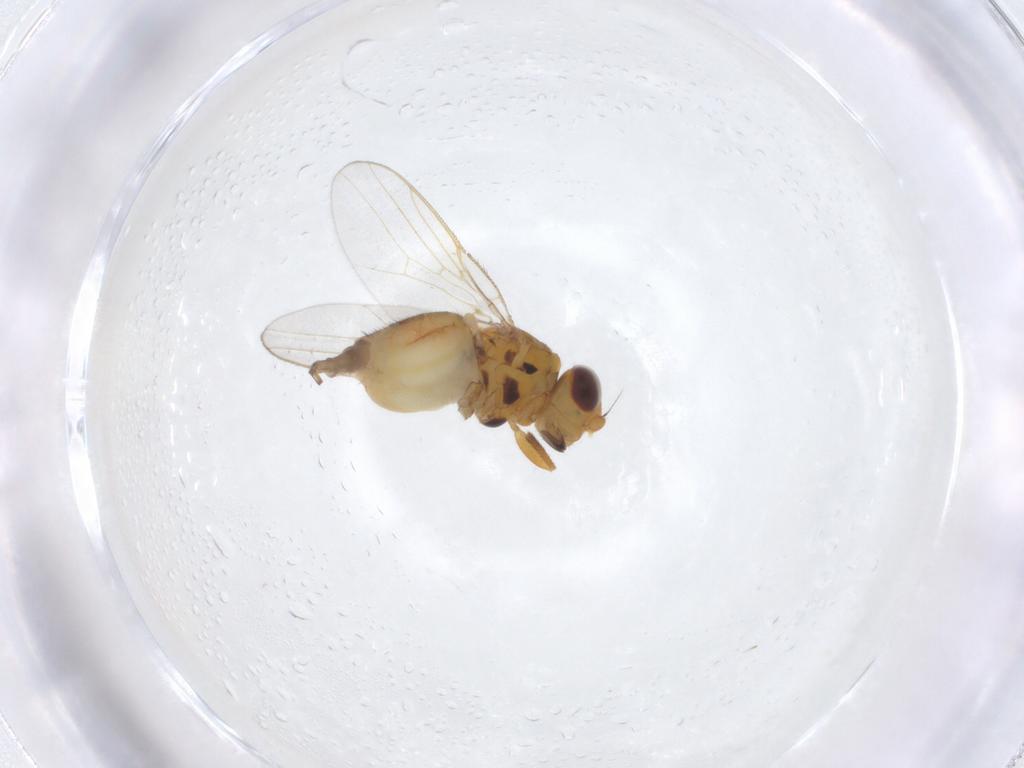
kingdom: Animalia
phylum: Arthropoda
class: Insecta
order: Diptera
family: Chloropidae
